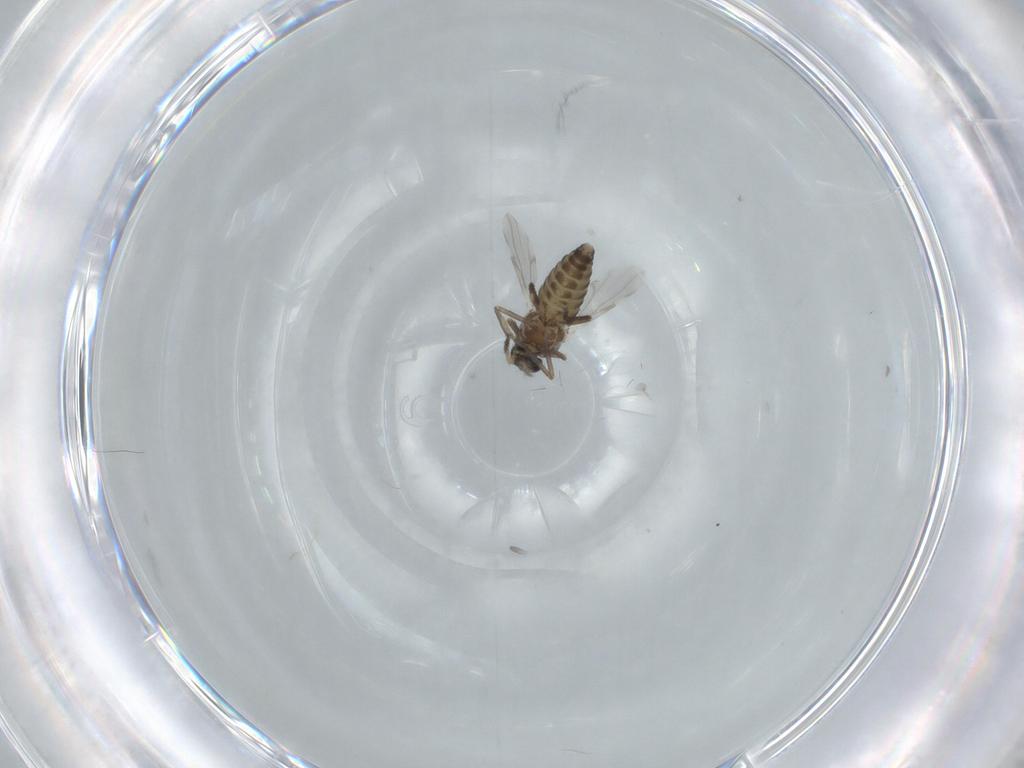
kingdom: Animalia
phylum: Arthropoda
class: Insecta
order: Diptera
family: Ceratopogonidae
